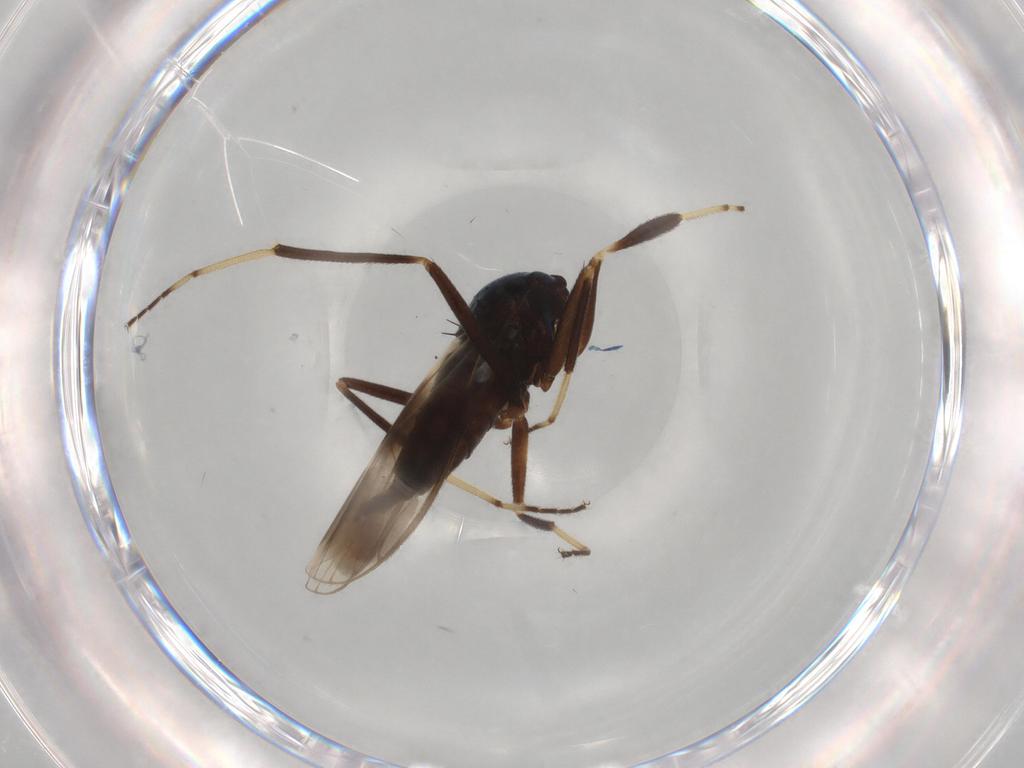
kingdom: Animalia
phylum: Arthropoda
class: Insecta
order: Diptera
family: Hybotidae
